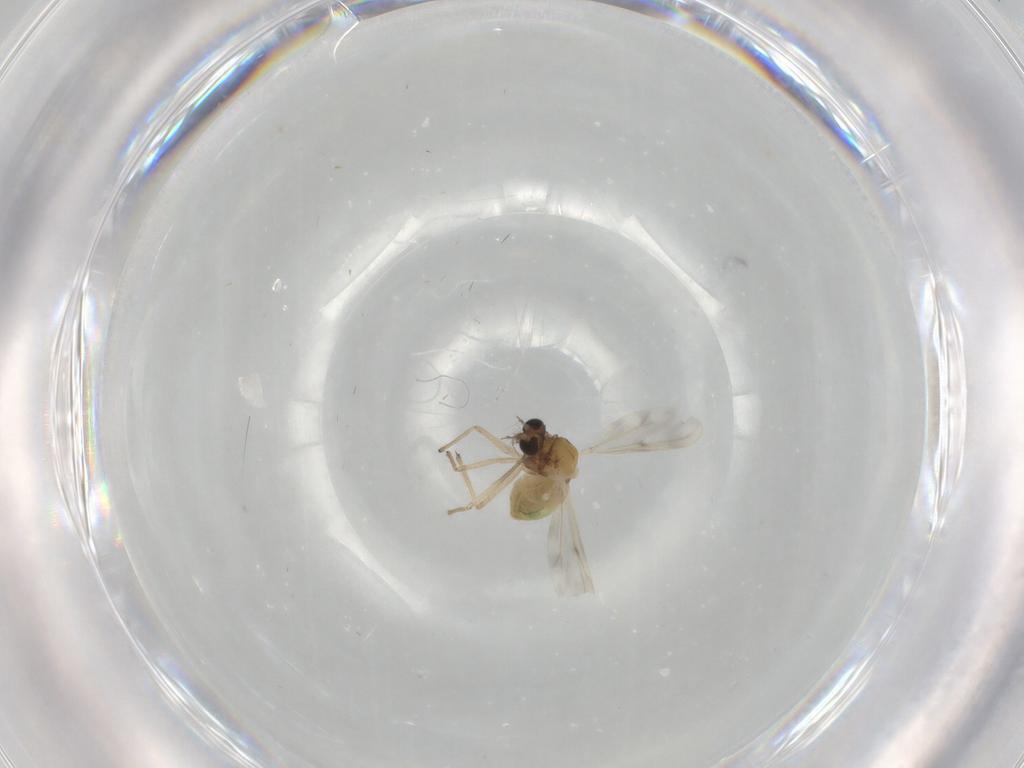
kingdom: Animalia
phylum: Arthropoda
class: Insecta
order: Diptera
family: Chironomidae
